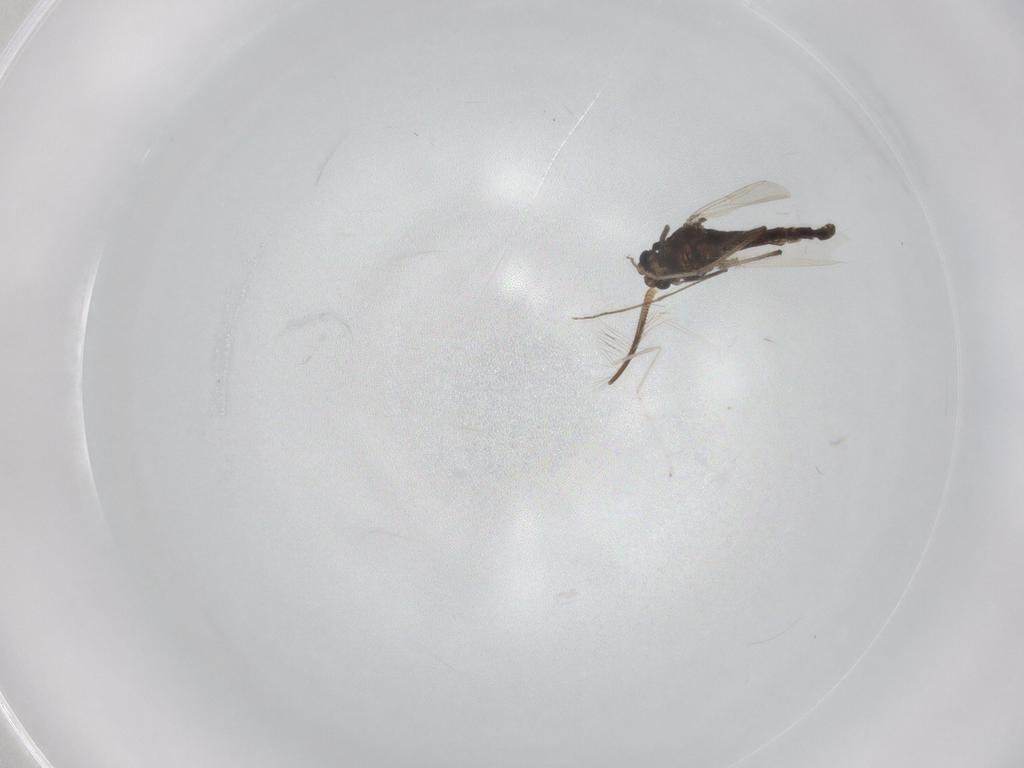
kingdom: Animalia
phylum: Arthropoda
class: Insecta
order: Diptera
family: Chironomidae
